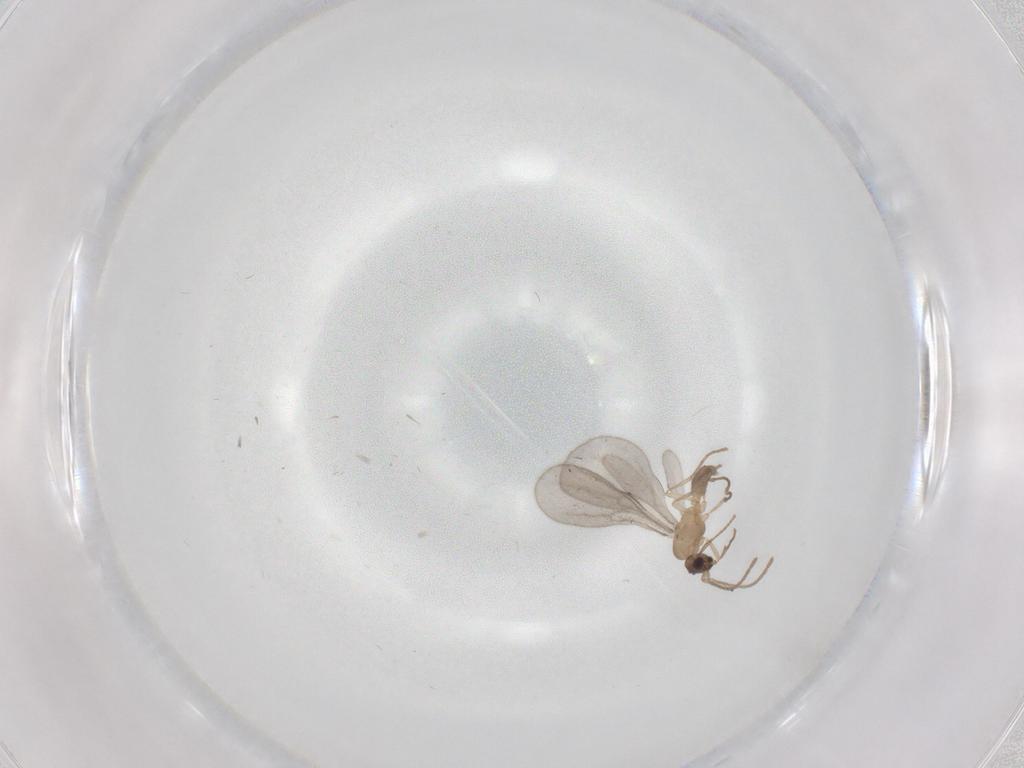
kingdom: Animalia
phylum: Arthropoda
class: Insecta
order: Hymenoptera
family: Formicidae
